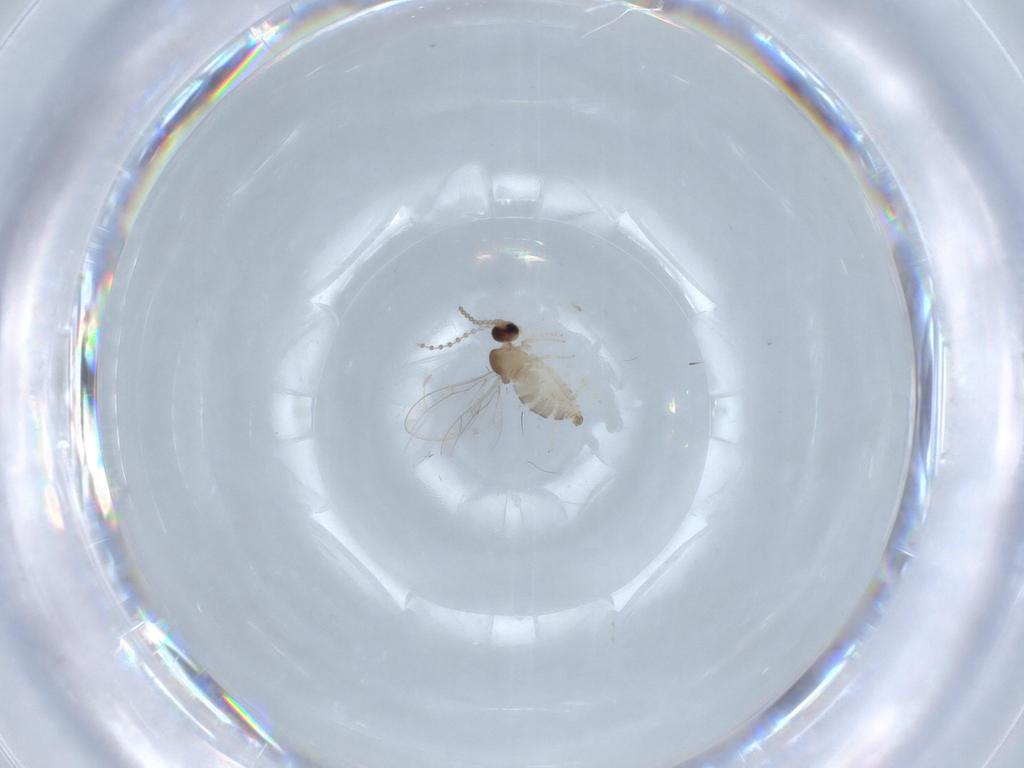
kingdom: Animalia
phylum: Arthropoda
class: Insecta
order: Diptera
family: Cecidomyiidae
